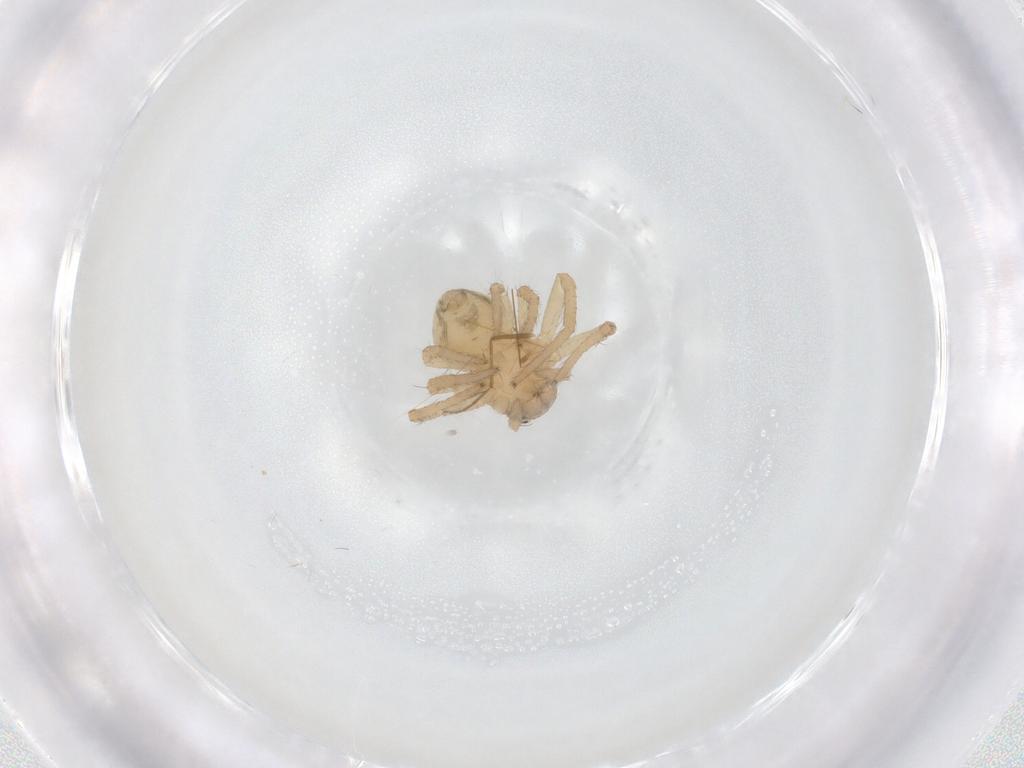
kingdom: Animalia
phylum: Arthropoda
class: Arachnida
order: Araneae
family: Thomisidae
